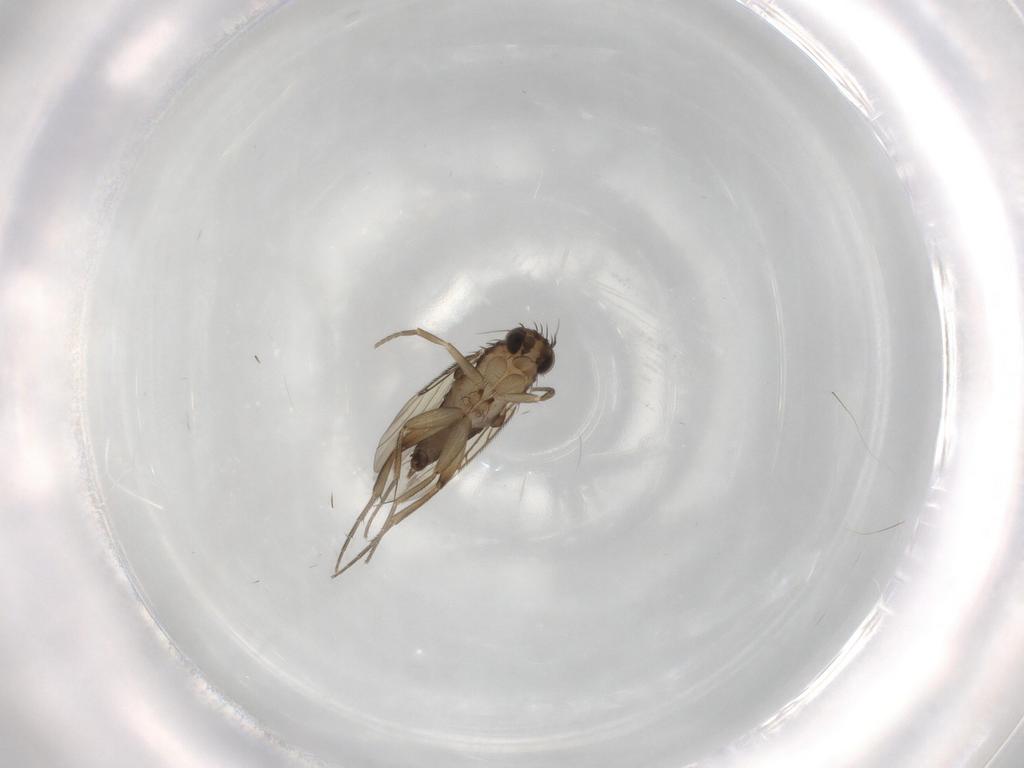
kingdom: Animalia
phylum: Arthropoda
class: Insecta
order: Diptera
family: Phoridae
